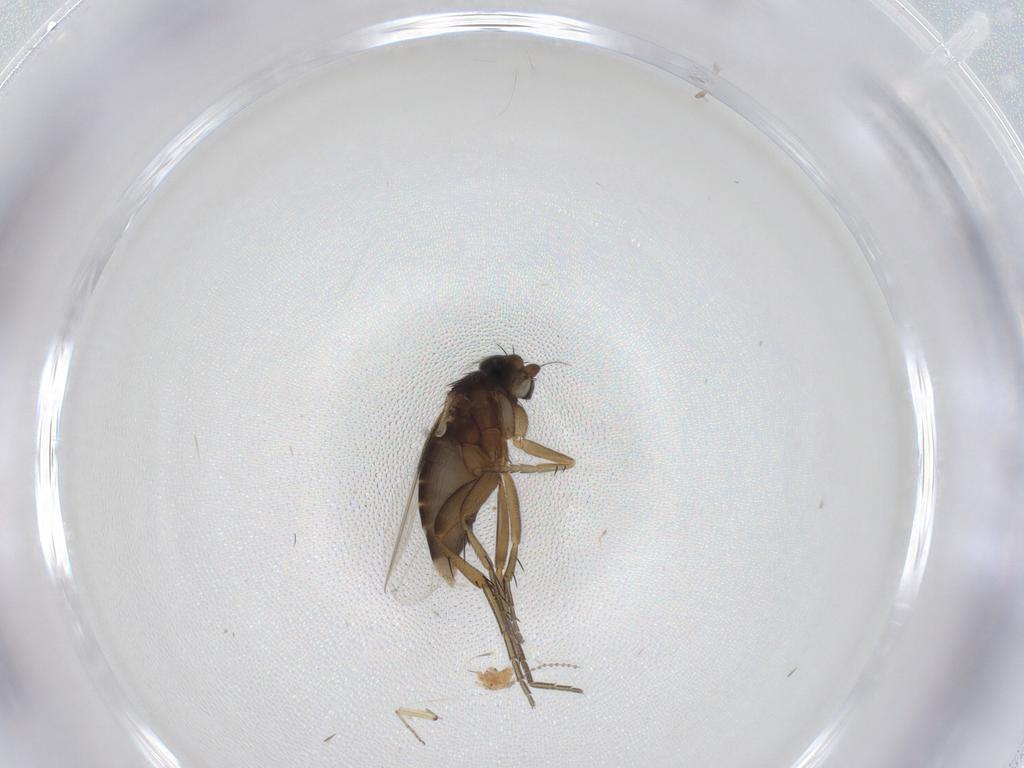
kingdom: Animalia
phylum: Arthropoda
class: Insecta
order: Diptera
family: Phoridae
